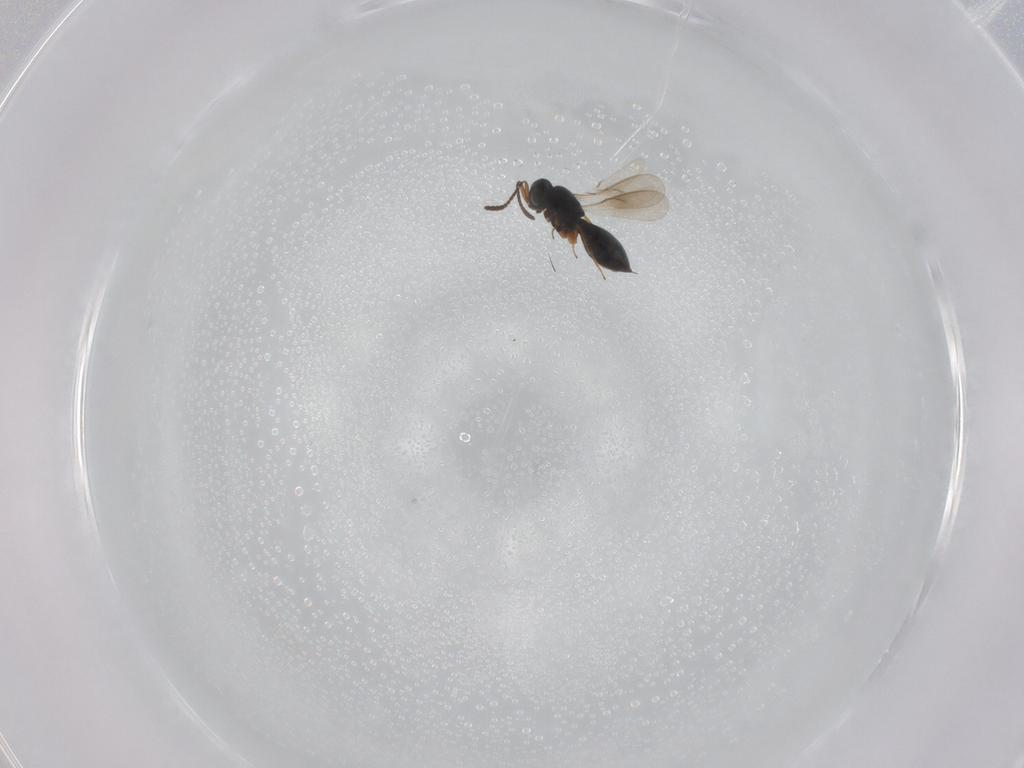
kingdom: Animalia
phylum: Arthropoda
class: Insecta
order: Hymenoptera
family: Scelionidae
